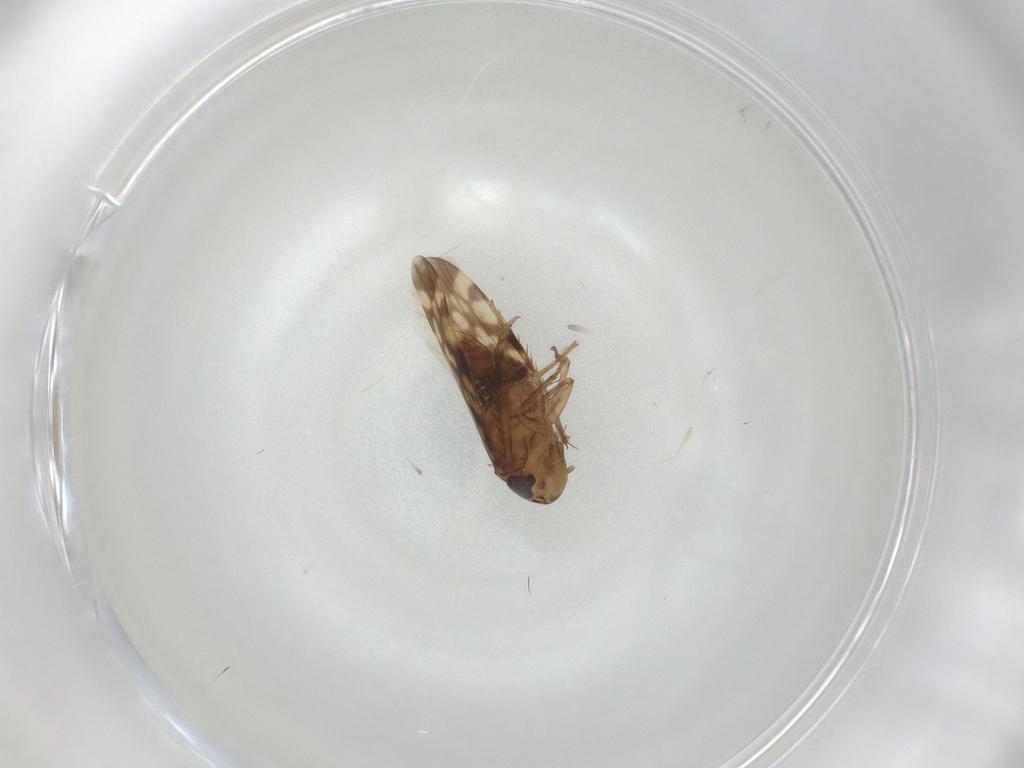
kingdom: Animalia
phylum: Arthropoda
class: Insecta
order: Hemiptera
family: Cicadellidae
